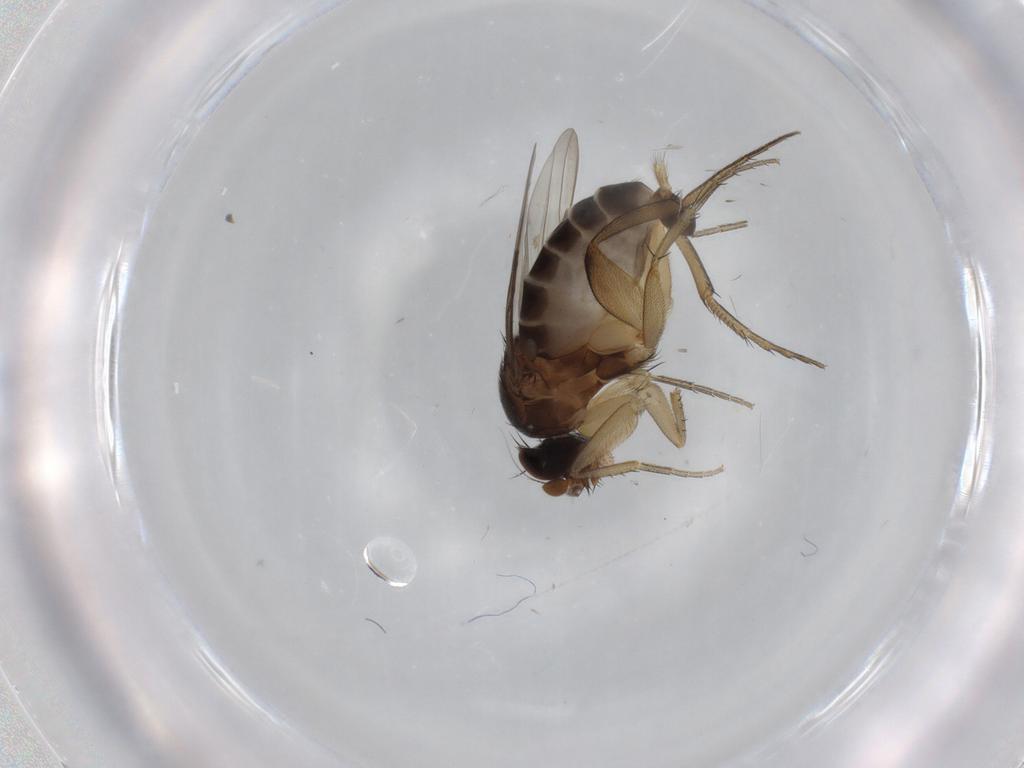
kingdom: Animalia
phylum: Arthropoda
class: Insecta
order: Diptera
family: Phoridae
